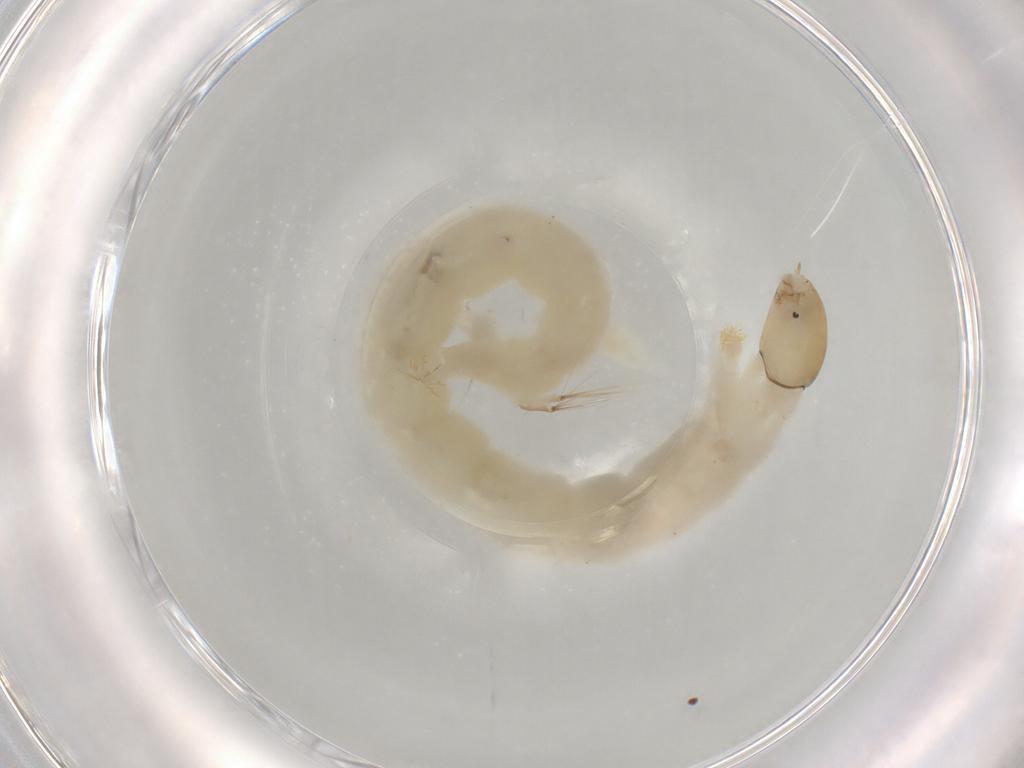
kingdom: Animalia
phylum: Arthropoda
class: Insecta
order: Diptera
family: Chironomidae
